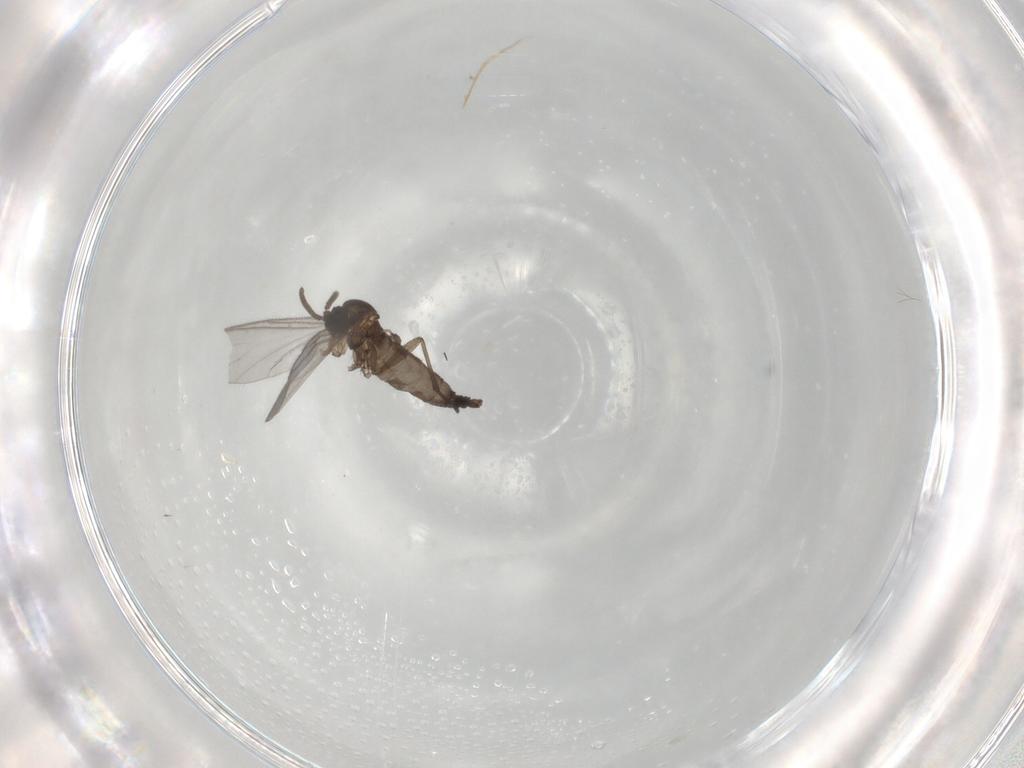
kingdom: Animalia
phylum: Arthropoda
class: Insecta
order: Diptera
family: Sciaridae
